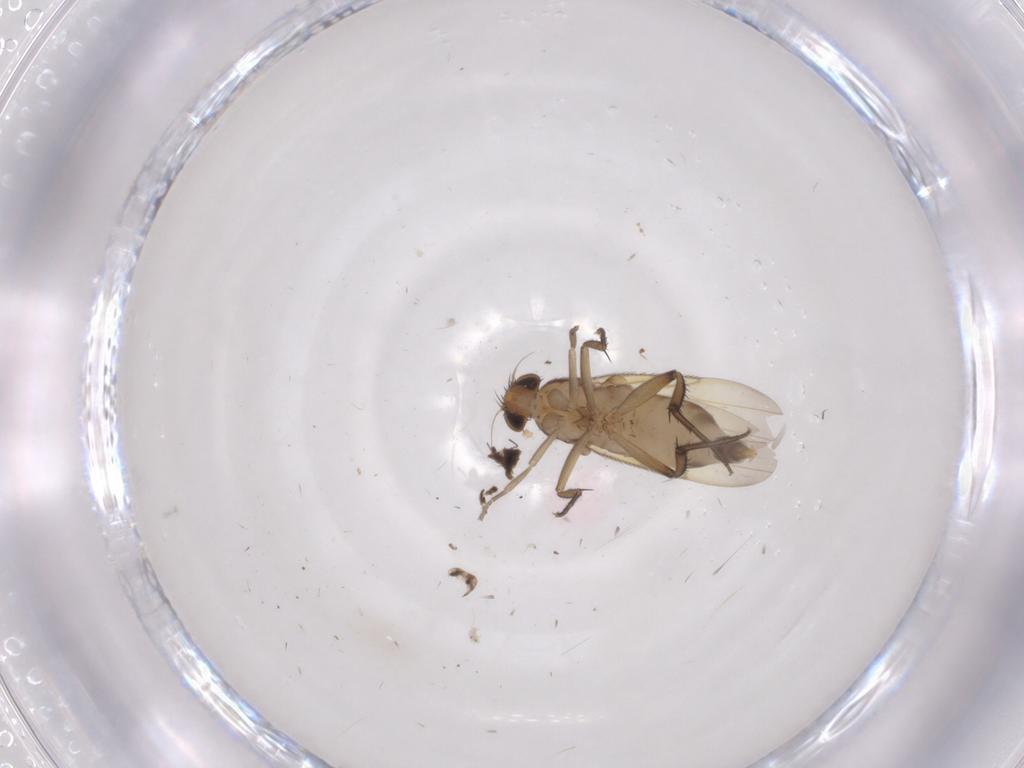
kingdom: Animalia
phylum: Arthropoda
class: Insecta
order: Diptera
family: Phoridae
